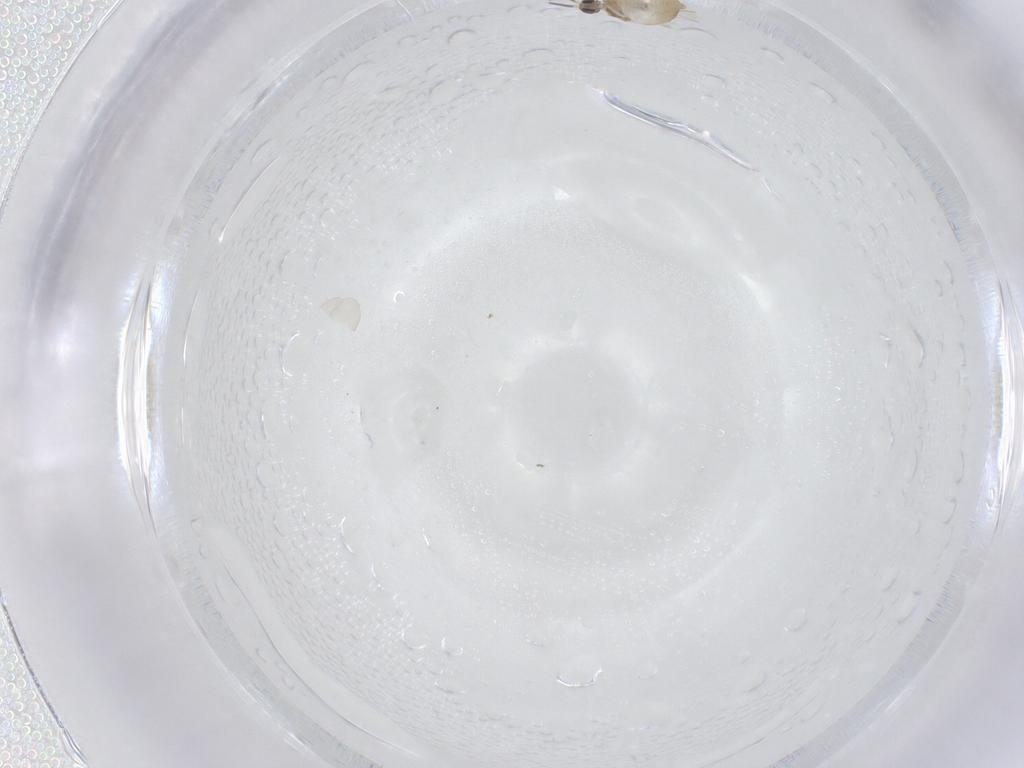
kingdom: Animalia
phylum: Arthropoda
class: Insecta
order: Diptera
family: Cecidomyiidae
